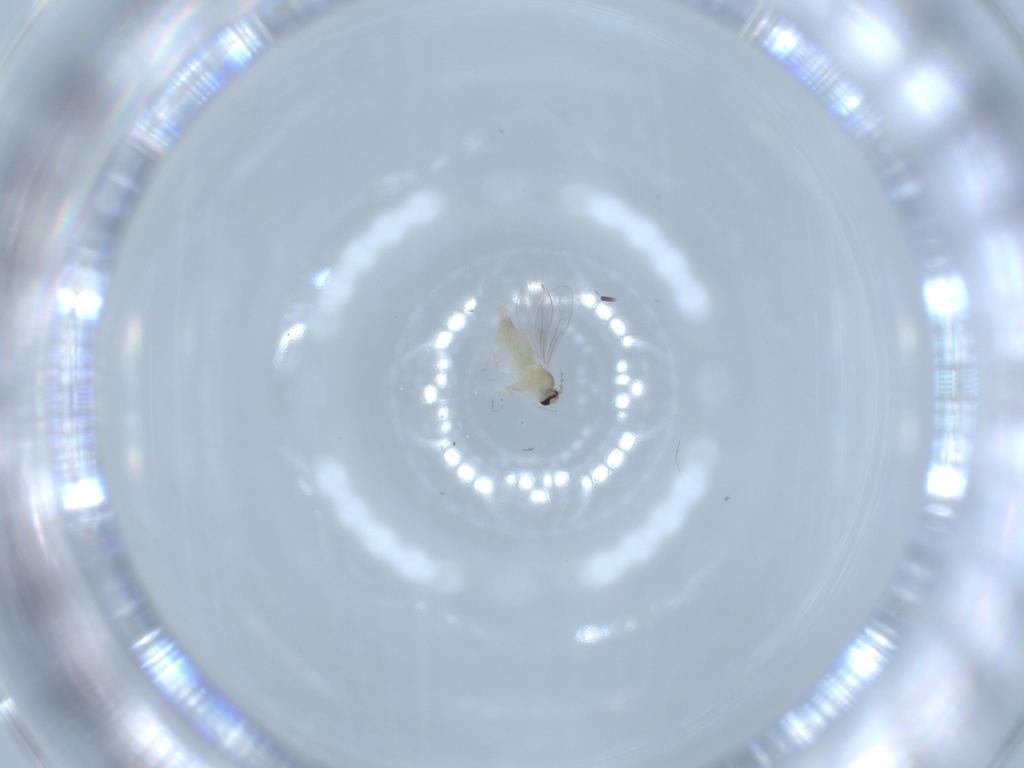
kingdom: Animalia
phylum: Arthropoda
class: Insecta
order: Diptera
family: Cecidomyiidae
